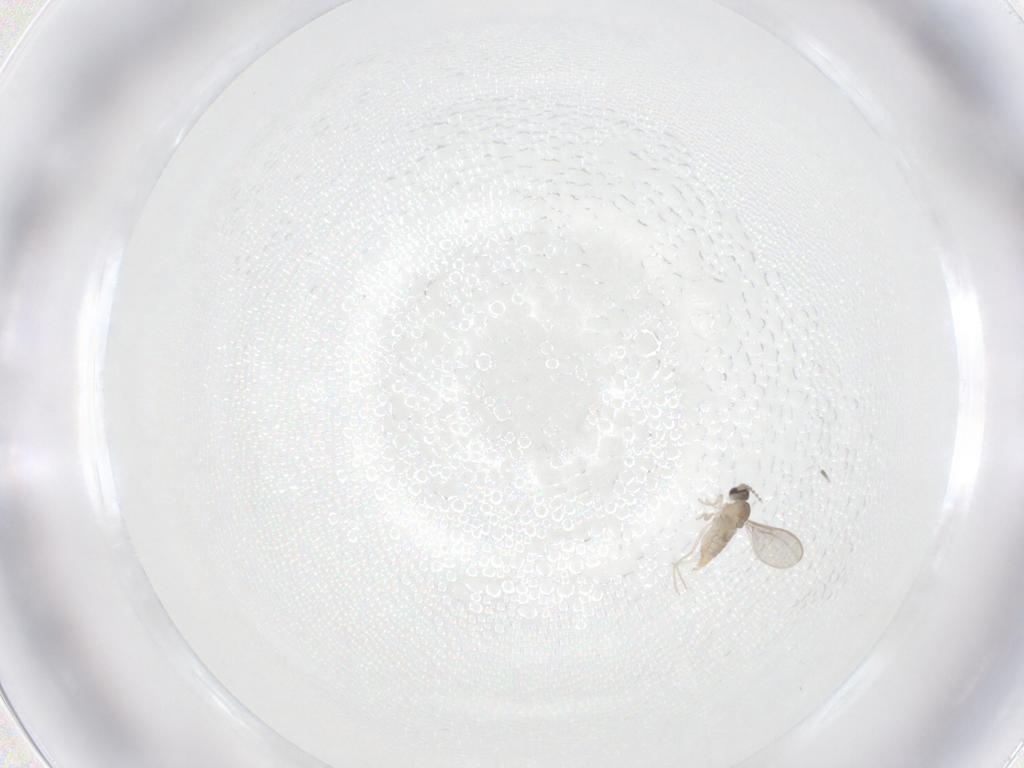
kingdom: Animalia
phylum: Arthropoda
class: Insecta
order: Diptera
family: Cecidomyiidae
